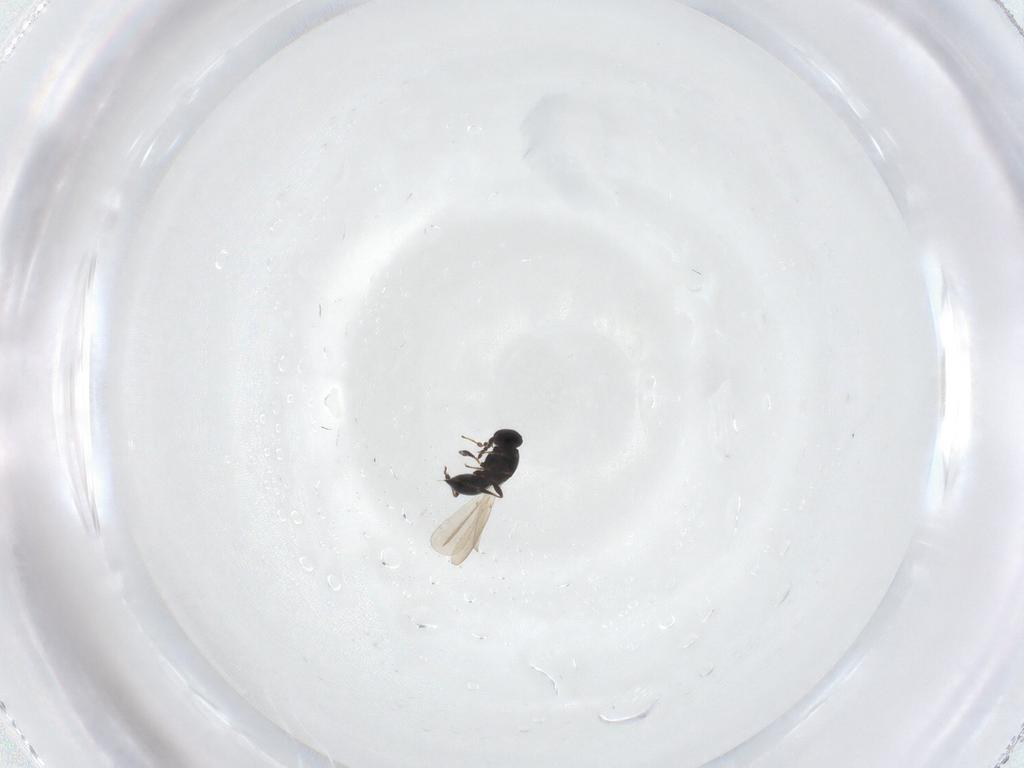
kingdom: Animalia
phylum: Arthropoda
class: Insecta
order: Hymenoptera
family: Platygastridae
